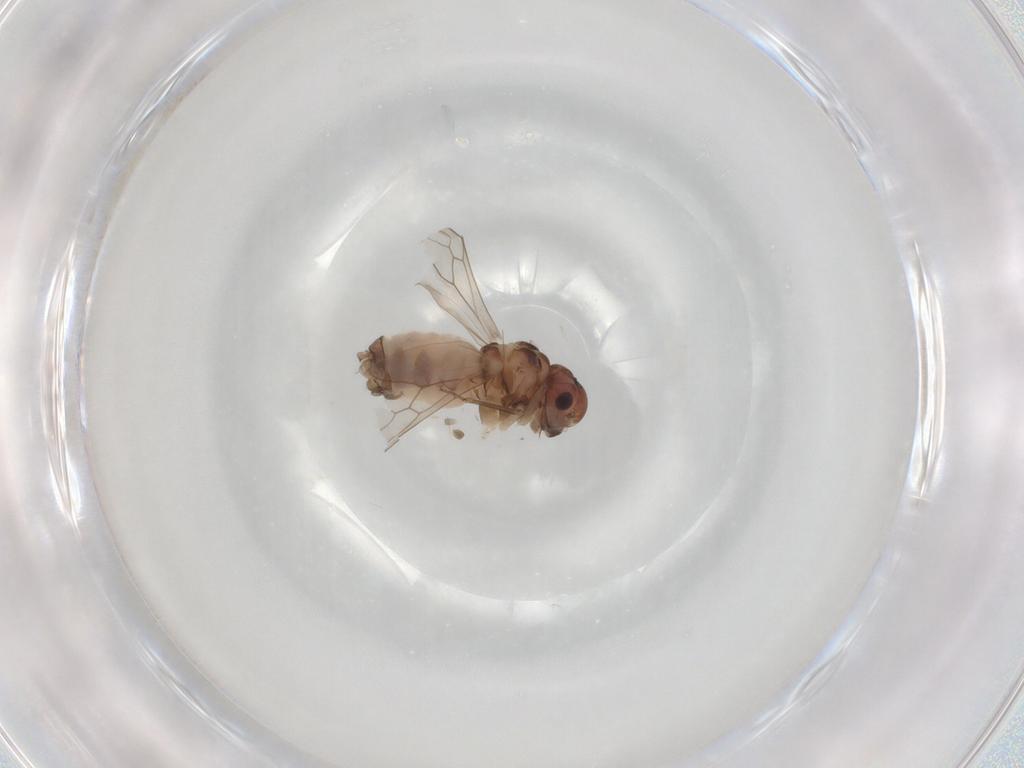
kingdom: Animalia
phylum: Arthropoda
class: Insecta
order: Psocodea
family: Peripsocidae
